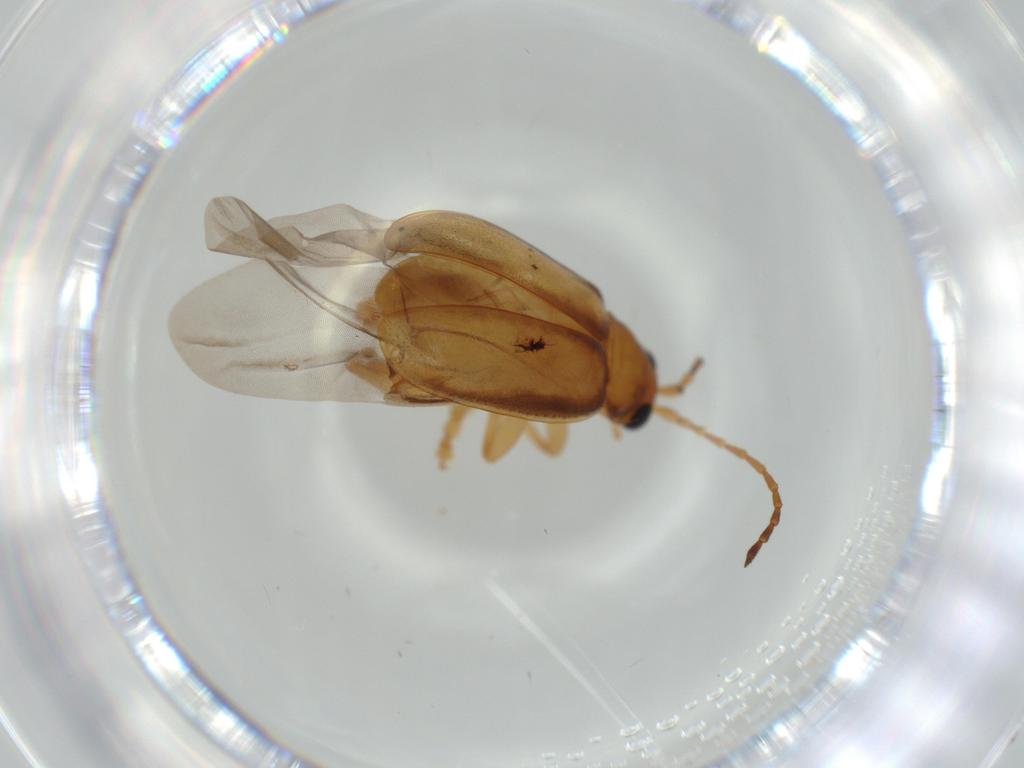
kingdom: Animalia
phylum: Arthropoda
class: Insecta
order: Coleoptera
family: Chrysomelidae
